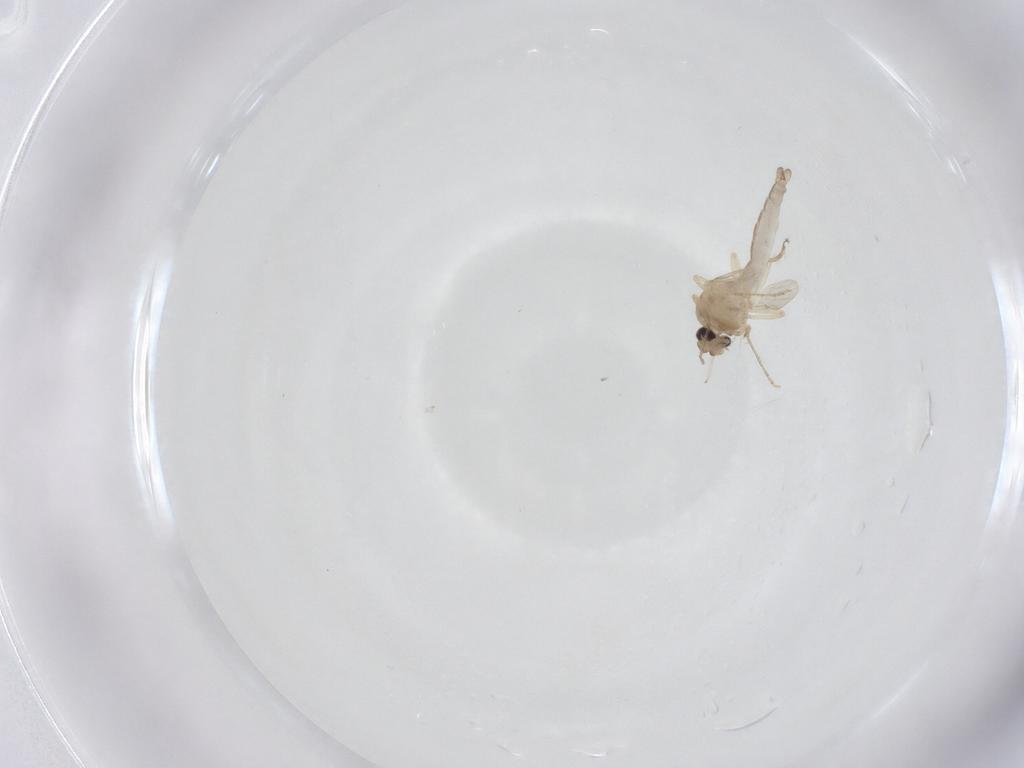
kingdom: Animalia
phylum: Arthropoda
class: Insecta
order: Diptera
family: Ceratopogonidae
